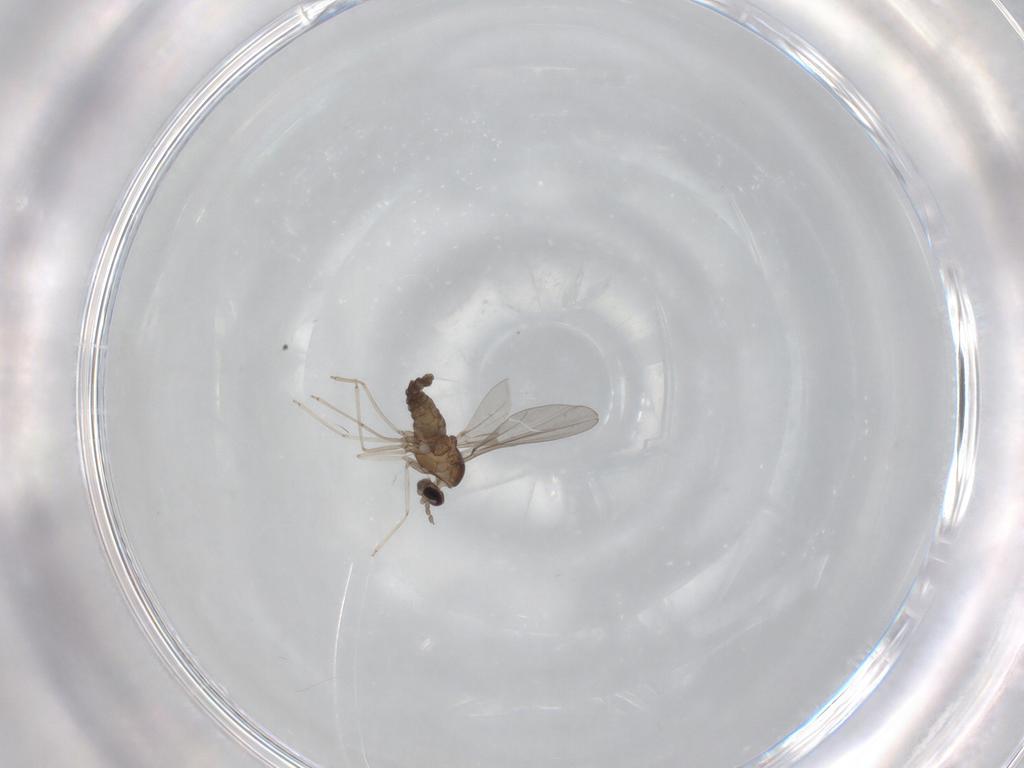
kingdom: Animalia
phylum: Arthropoda
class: Insecta
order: Diptera
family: Cecidomyiidae
